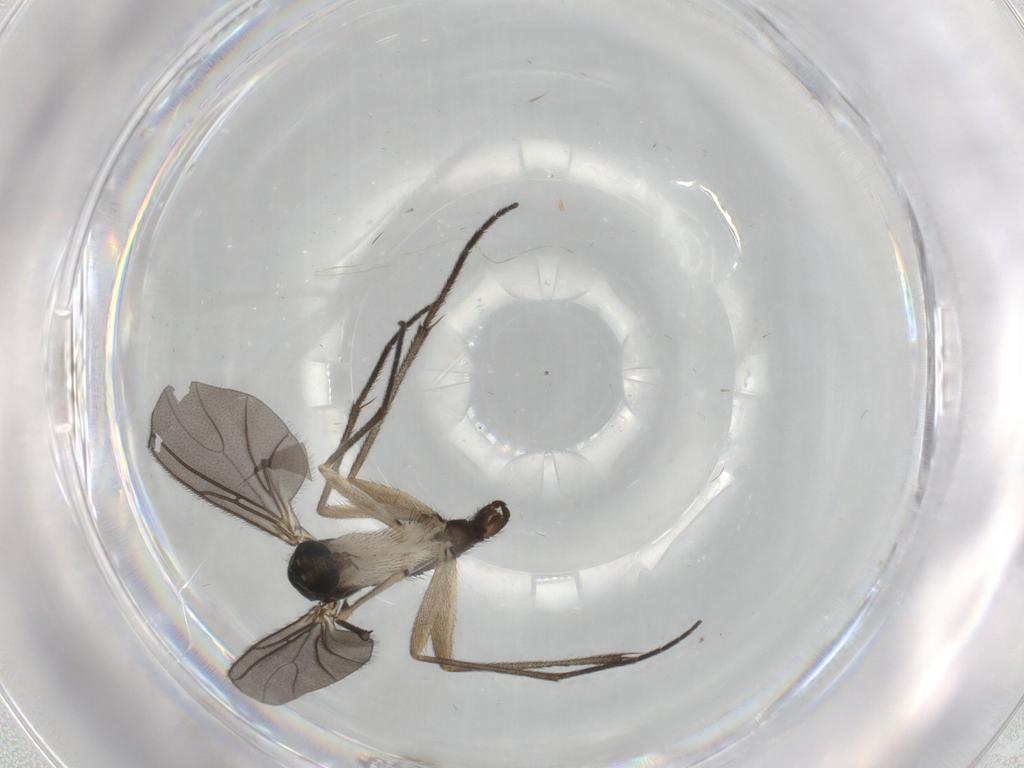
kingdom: Animalia
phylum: Arthropoda
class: Insecta
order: Diptera
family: Sciaridae
